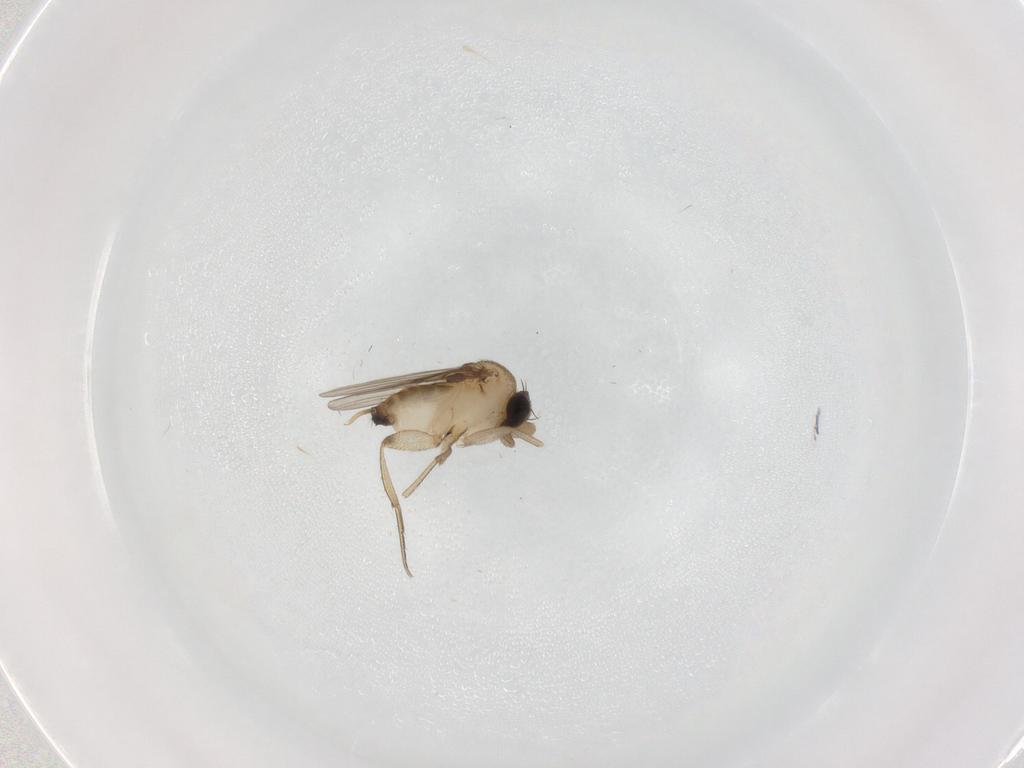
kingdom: Animalia
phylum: Arthropoda
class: Insecta
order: Diptera
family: Phoridae
